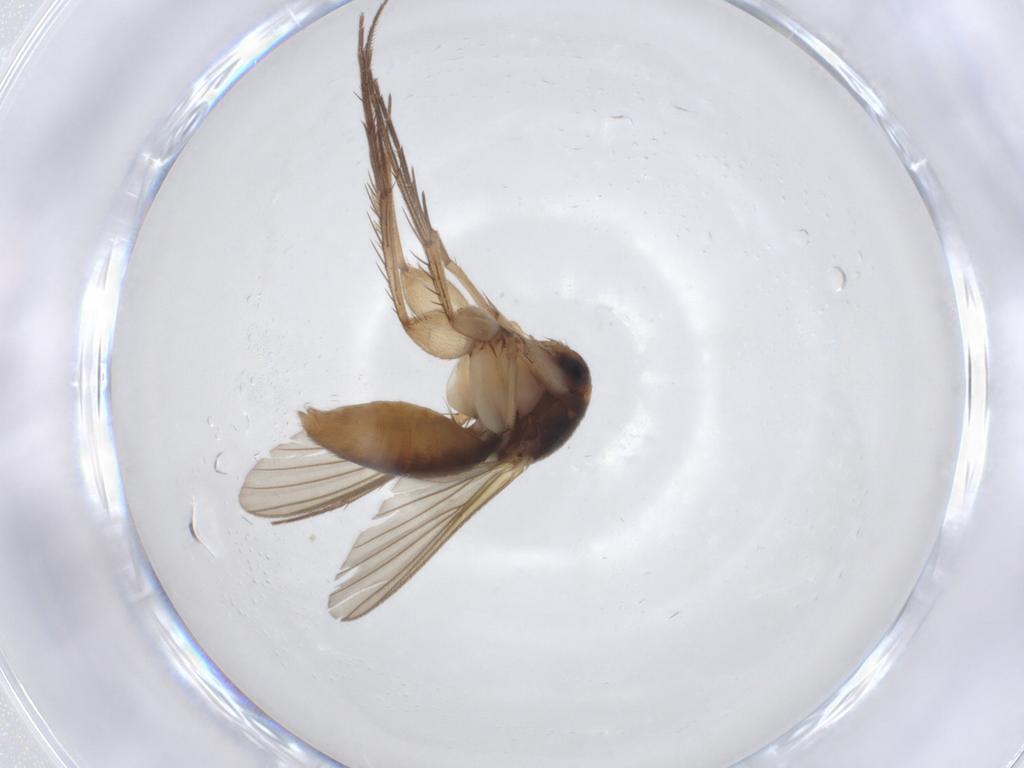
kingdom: Animalia
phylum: Arthropoda
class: Insecta
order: Diptera
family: Mycetophilidae
